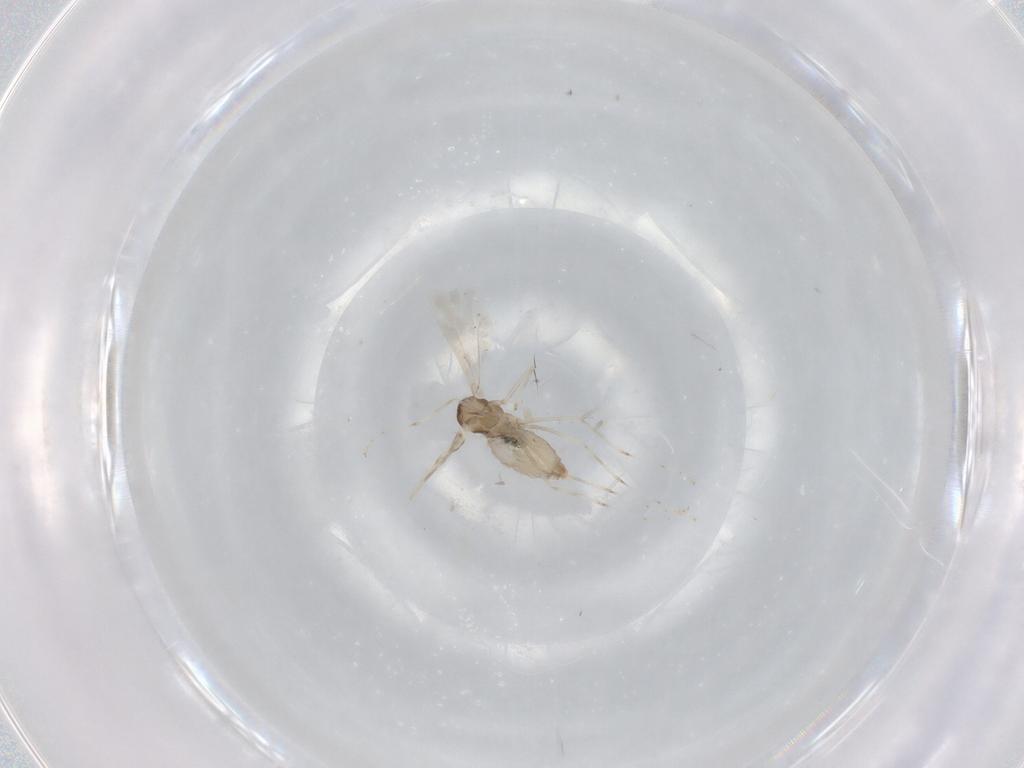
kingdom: Animalia
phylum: Arthropoda
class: Insecta
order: Diptera
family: Cecidomyiidae
